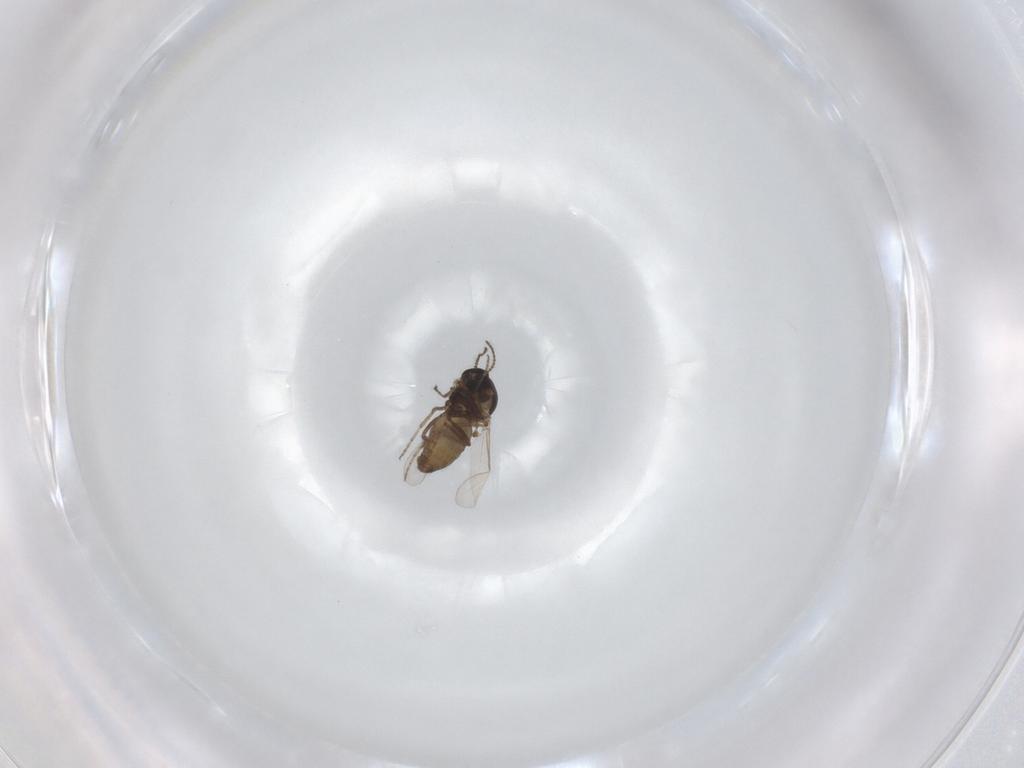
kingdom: Animalia
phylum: Arthropoda
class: Insecta
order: Diptera
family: Ceratopogonidae
